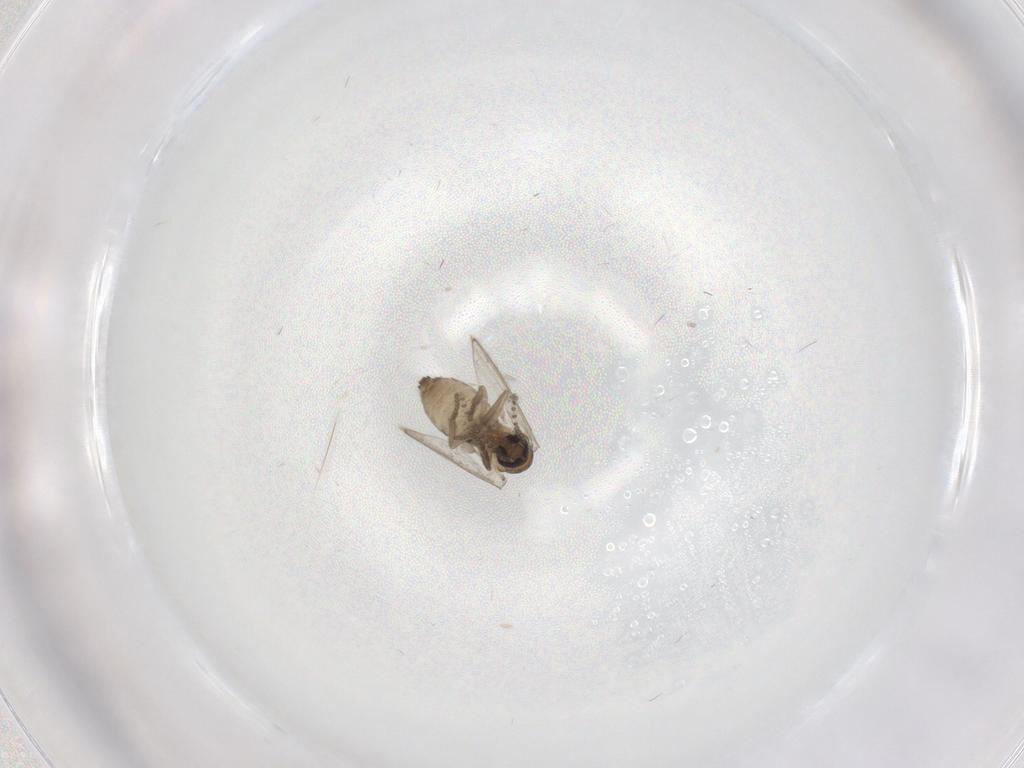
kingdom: Animalia
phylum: Arthropoda
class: Insecta
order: Diptera
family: Psychodidae
